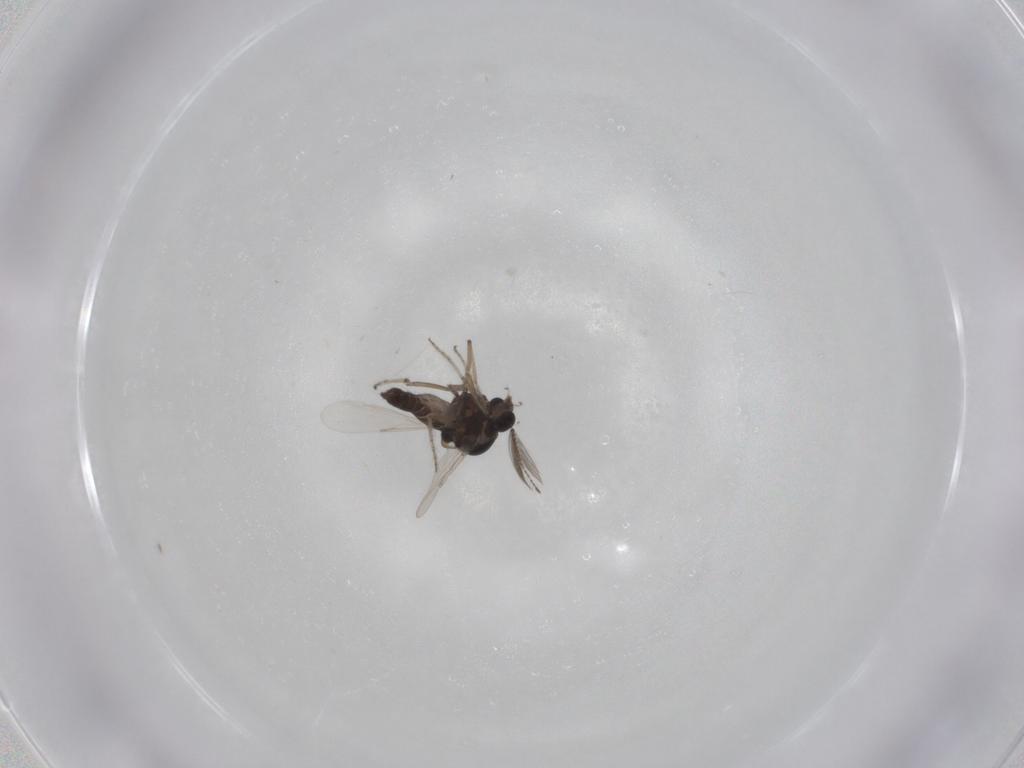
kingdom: Animalia
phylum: Arthropoda
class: Insecta
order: Diptera
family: Ceratopogonidae
